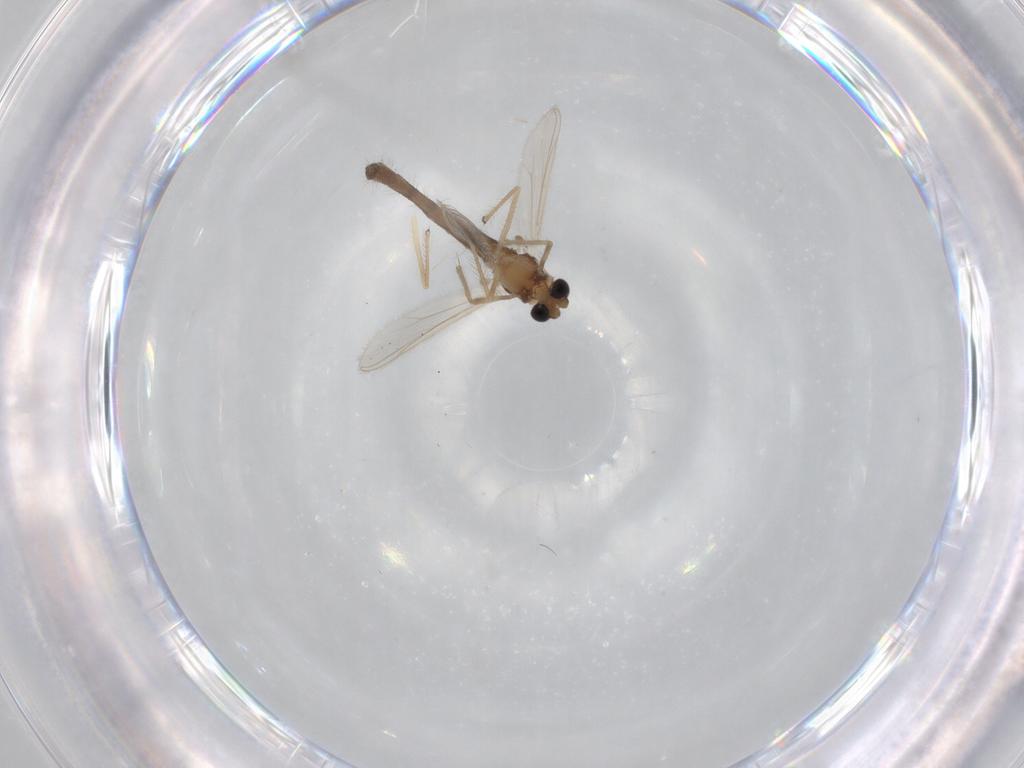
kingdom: Animalia
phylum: Arthropoda
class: Insecta
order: Diptera
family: Chironomidae
